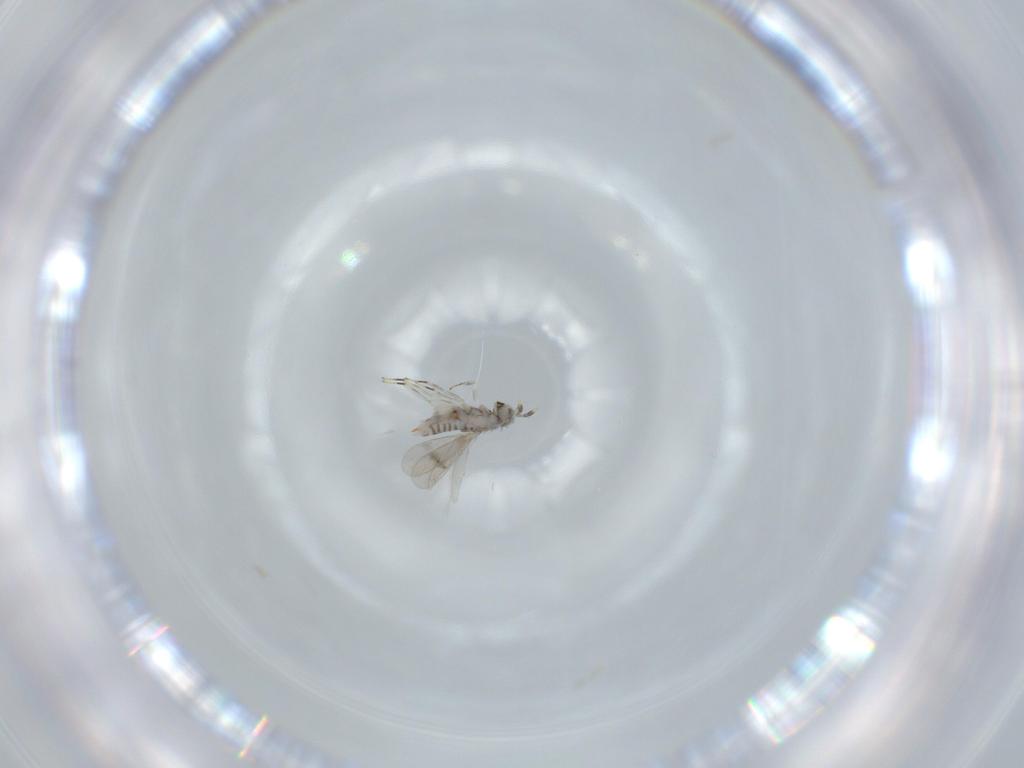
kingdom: Animalia
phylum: Arthropoda
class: Insecta
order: Hymenoptera
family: Aphelinidae
